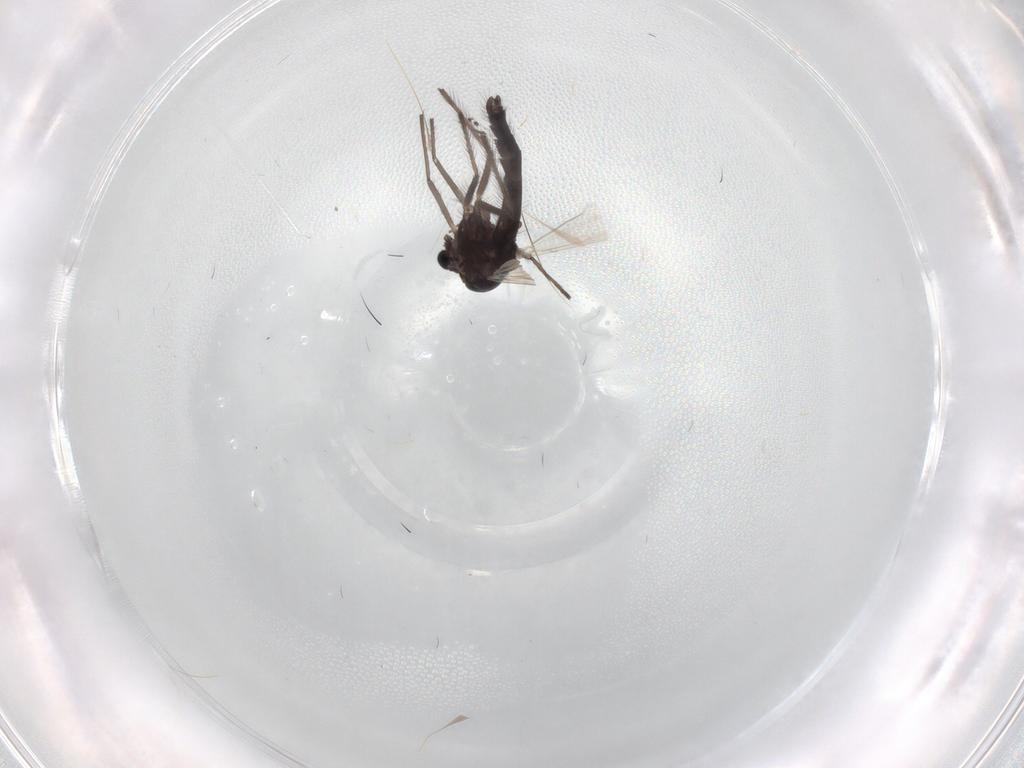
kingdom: Animalia
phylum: Arthropoda
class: Insecta
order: Diptera
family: Chironomidae
